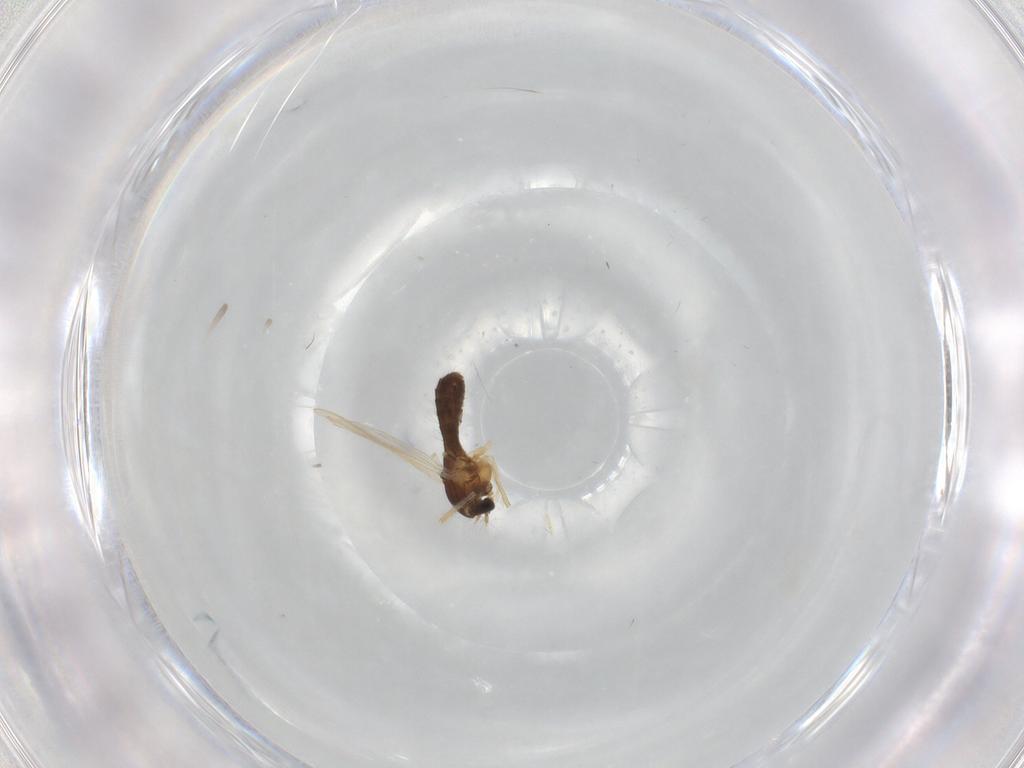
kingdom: Animalia
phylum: Arthropoda
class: Insecta
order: Diptera
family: Chironomidae
